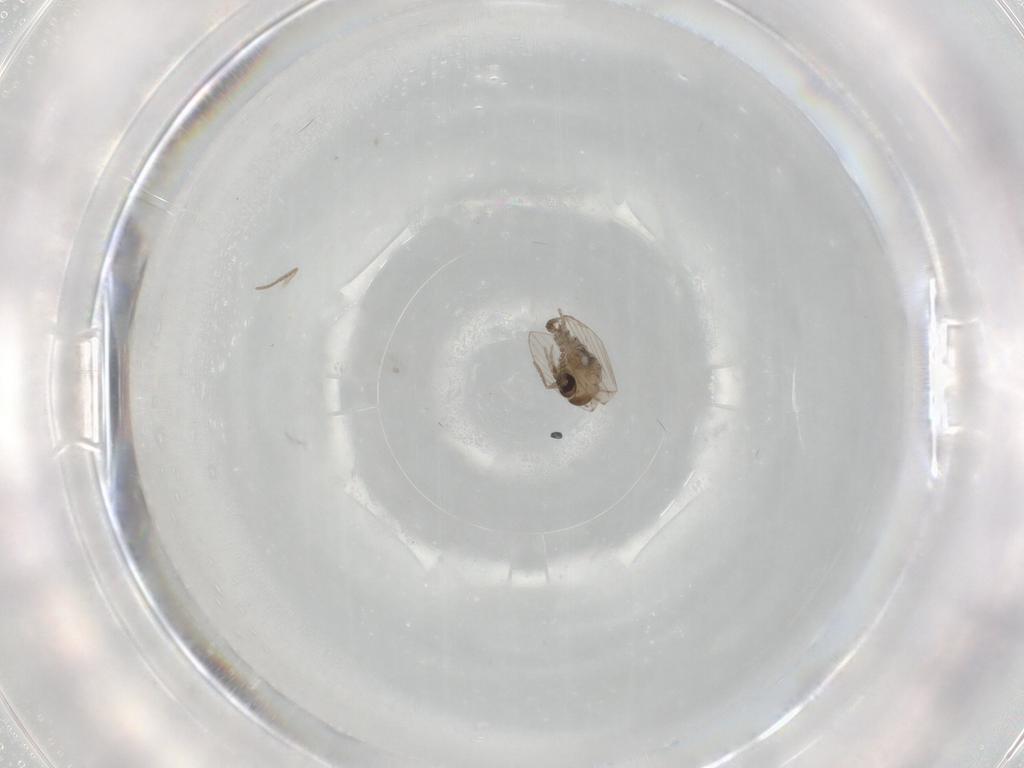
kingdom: Animalia
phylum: Arthropoda
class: Insecta
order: Diptera
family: Psychodidae
